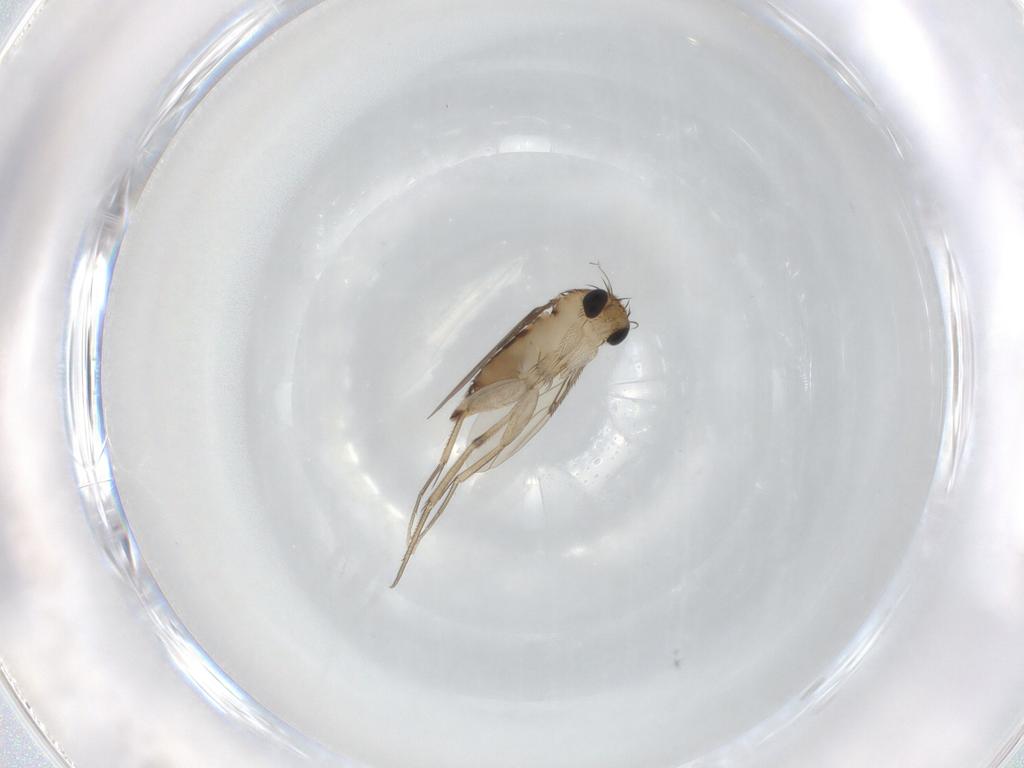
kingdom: Animalia
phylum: Arthropoda
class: Insecta
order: Diptera
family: Phoridae
